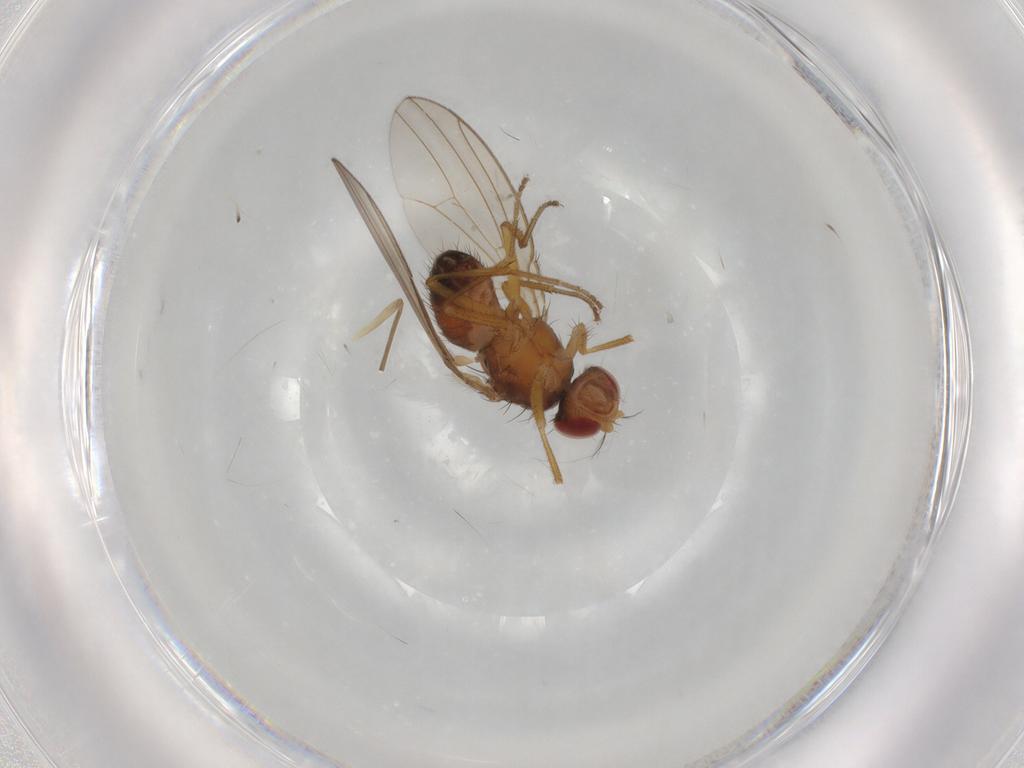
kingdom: Animalia
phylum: Arthropoda
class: Insecta
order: Diptera
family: Drosophilidae
